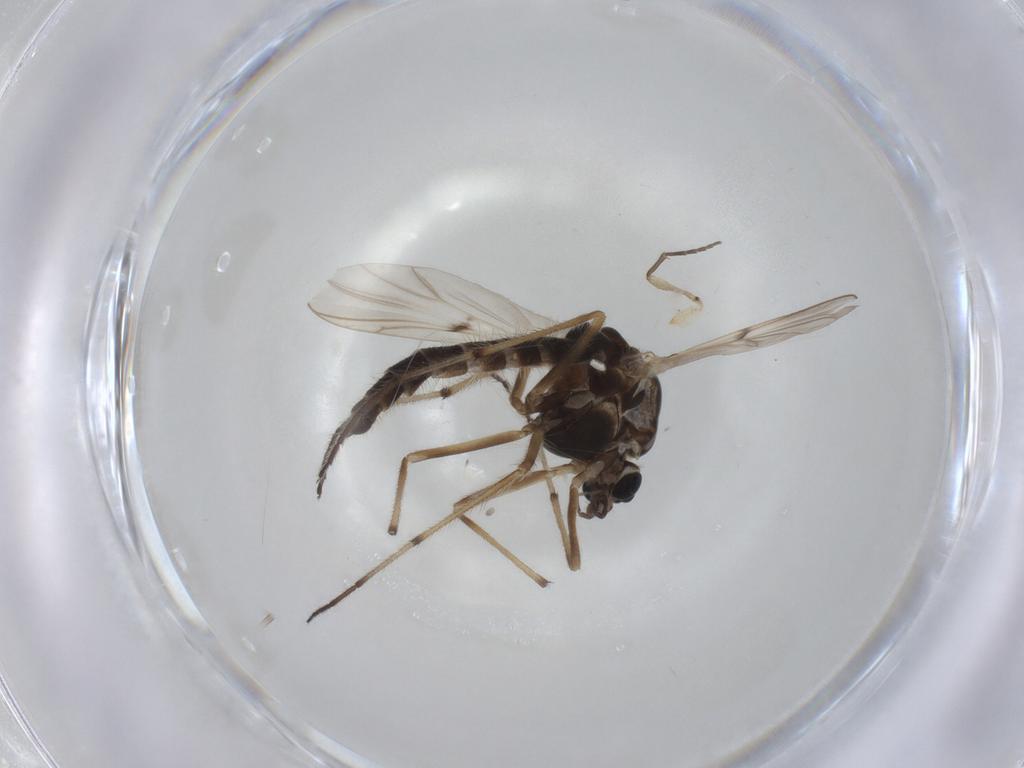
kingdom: Animalia
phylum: Arthropoda
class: Insecta
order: Diptera
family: Chironomidae
